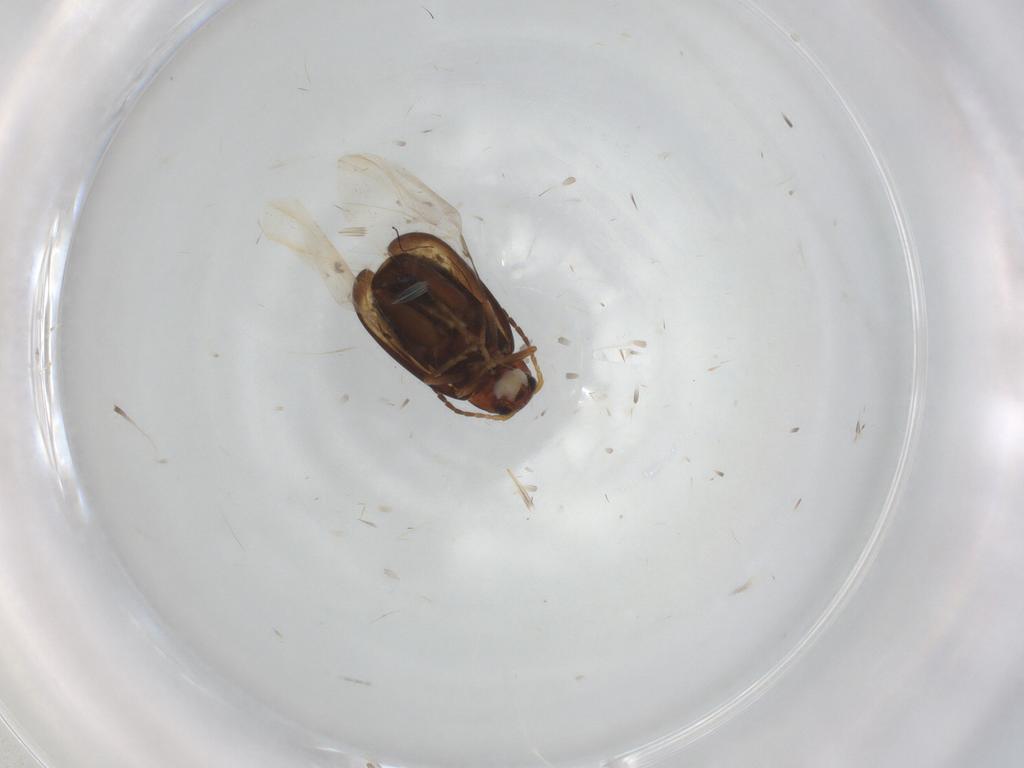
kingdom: Animalia
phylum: Arthropoda
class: Insecta
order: Coleoptera
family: Chrysomelidae
